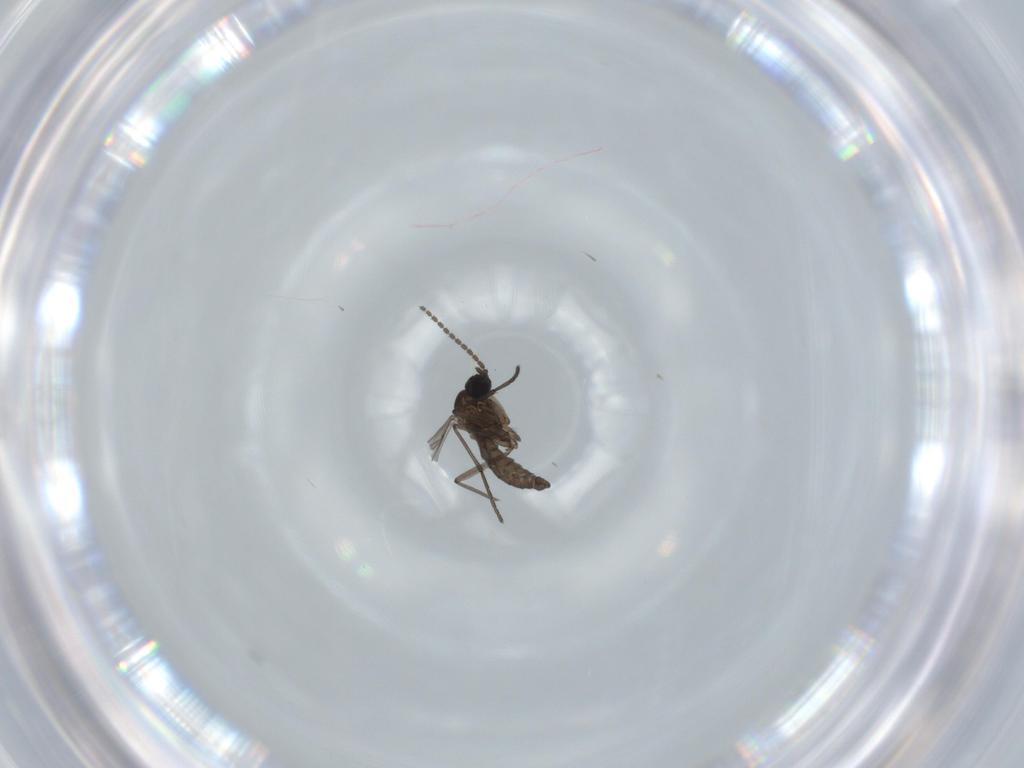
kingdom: Animalia
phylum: Arthropoda
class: Insecta
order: Diptera
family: Sciaridae
